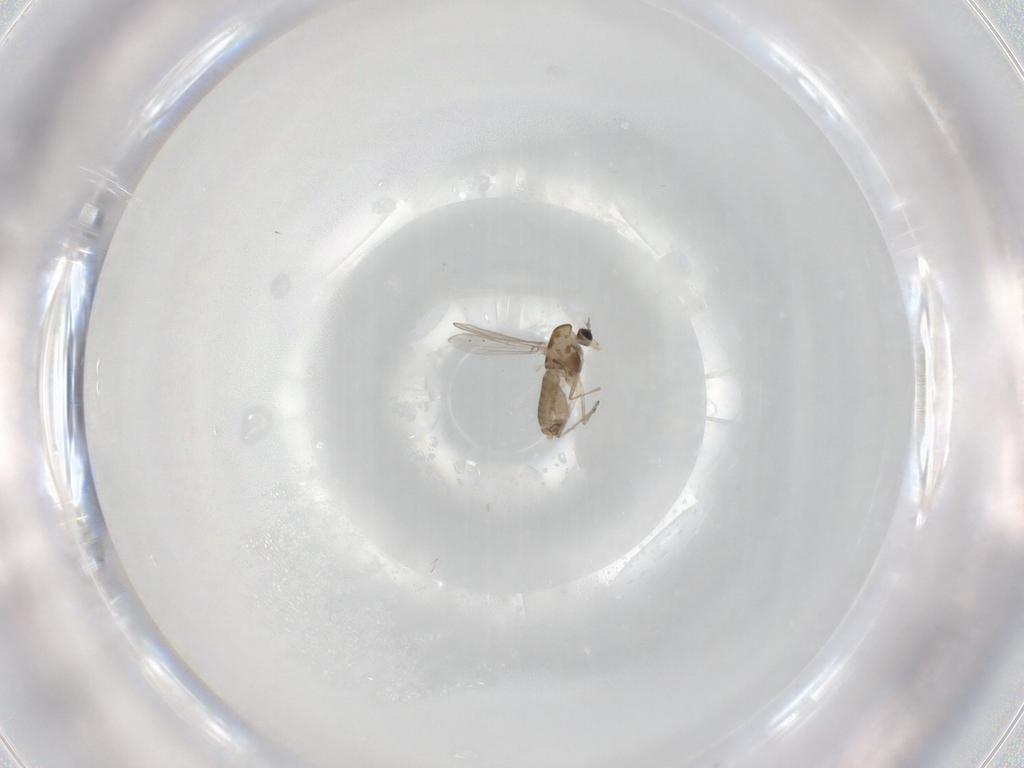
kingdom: Animalia
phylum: Arthropoda
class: Insecta
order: Diptera
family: Chironomidae
